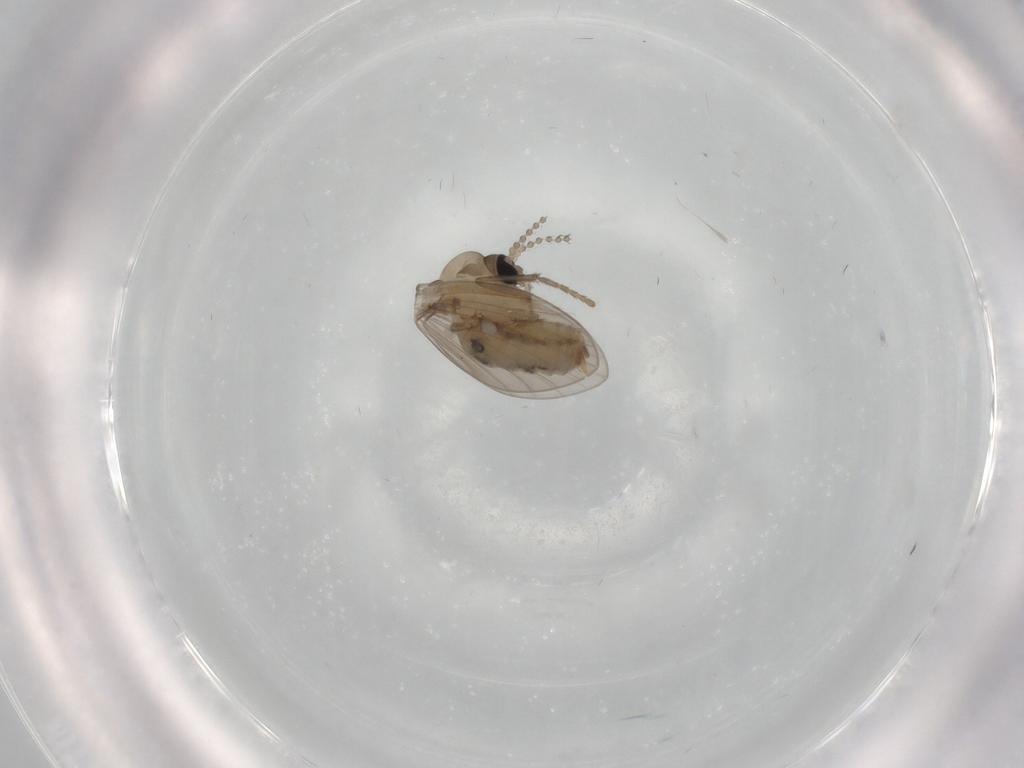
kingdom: Animalia
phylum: Arthropoda
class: Insecta
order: Diptera
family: Psychodidae
